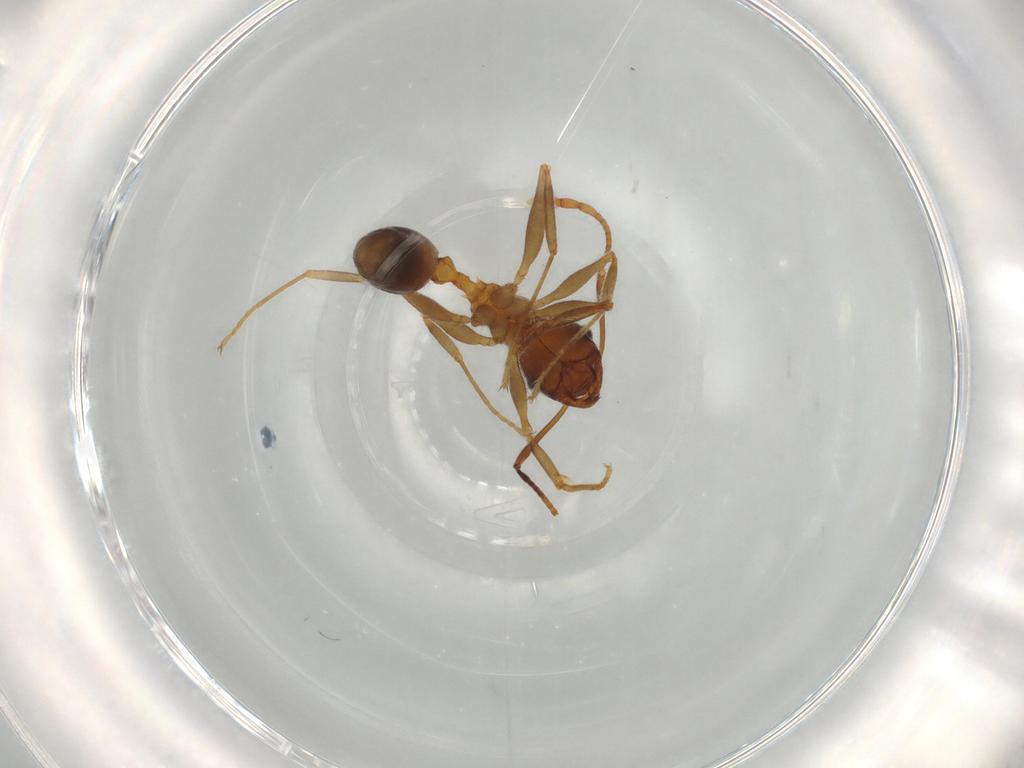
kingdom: Animalia
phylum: Arthropoda
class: Insecta
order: Hymenoptera
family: Formicidae
